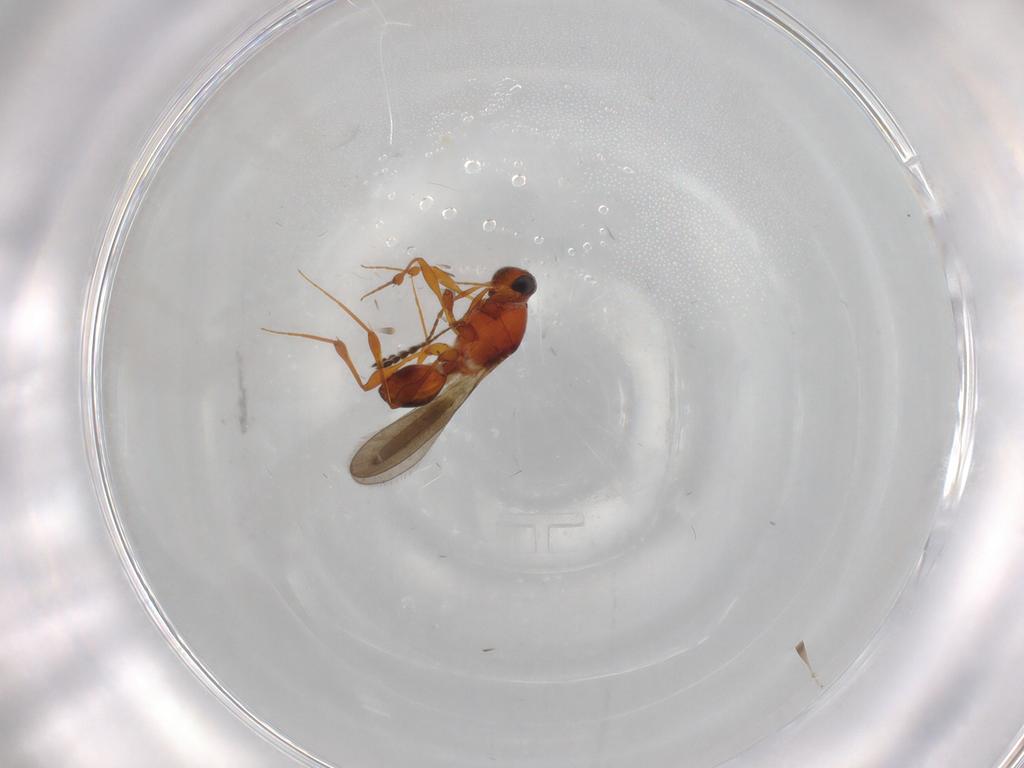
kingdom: Animalia
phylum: Arthropoda
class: Insecta
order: Hymenoptera
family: Platygastridae
